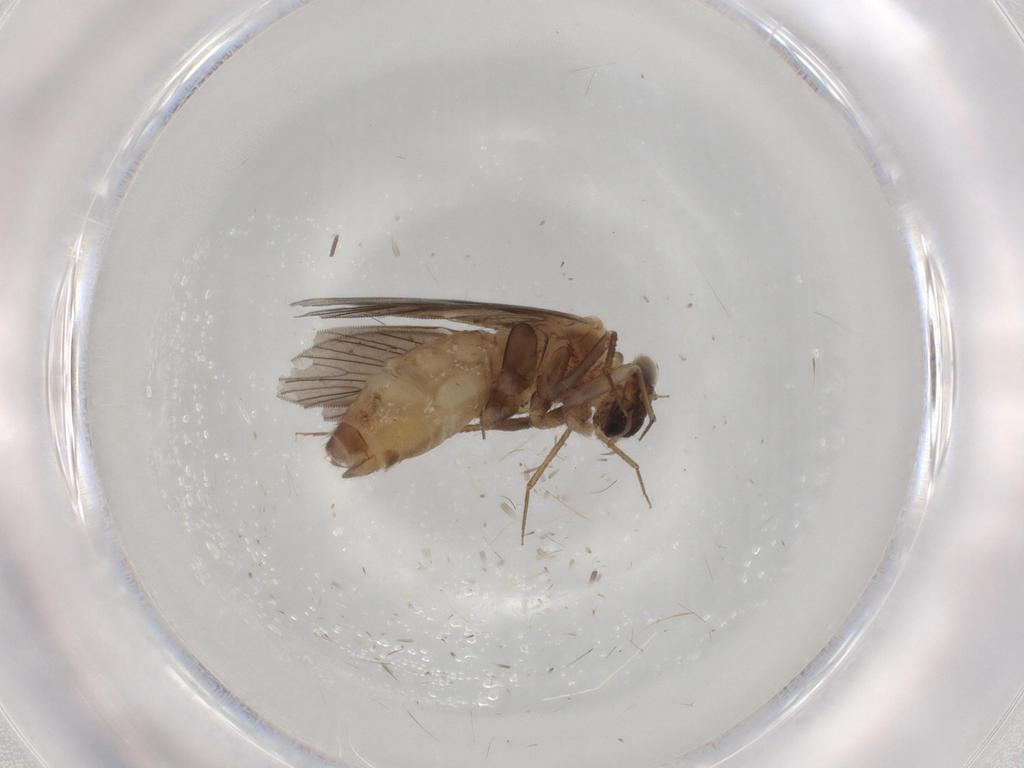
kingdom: Animalia
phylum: Arthropoda
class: Insecta
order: Psocodea
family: Lepidopsocidae
